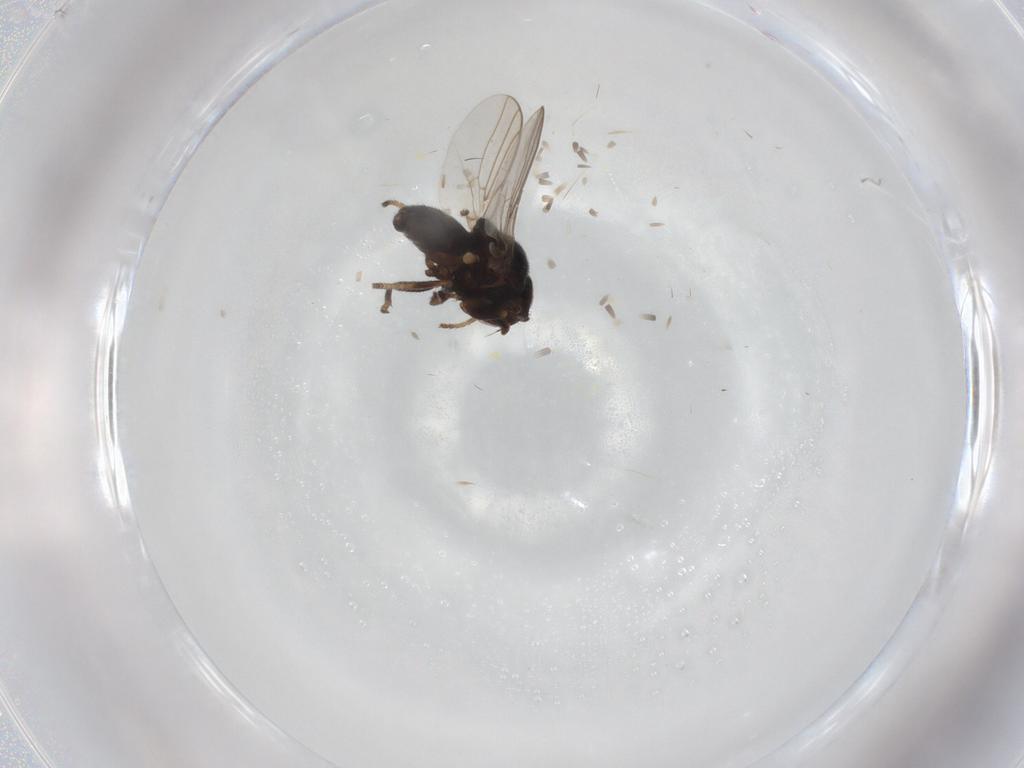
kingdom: Animalia
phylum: Arthropoda
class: Insecta
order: Diptera
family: Chloropidae
